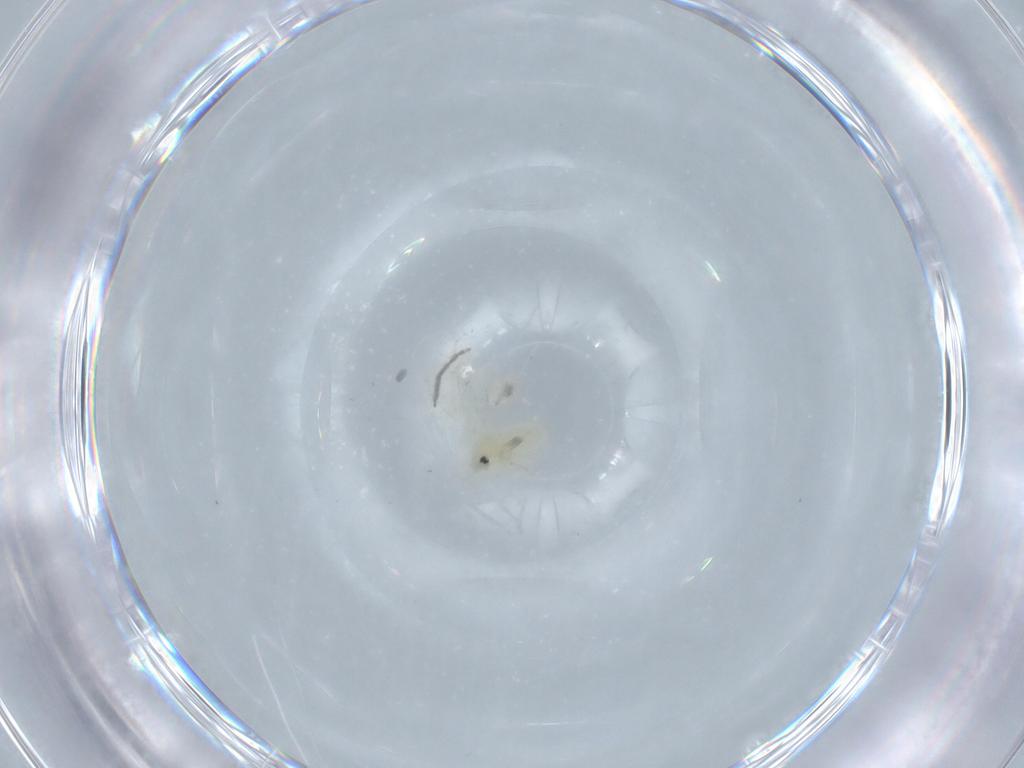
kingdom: Animalia
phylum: Arthropoda
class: Insecta
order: Hemiptera
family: Aleyrodidae
